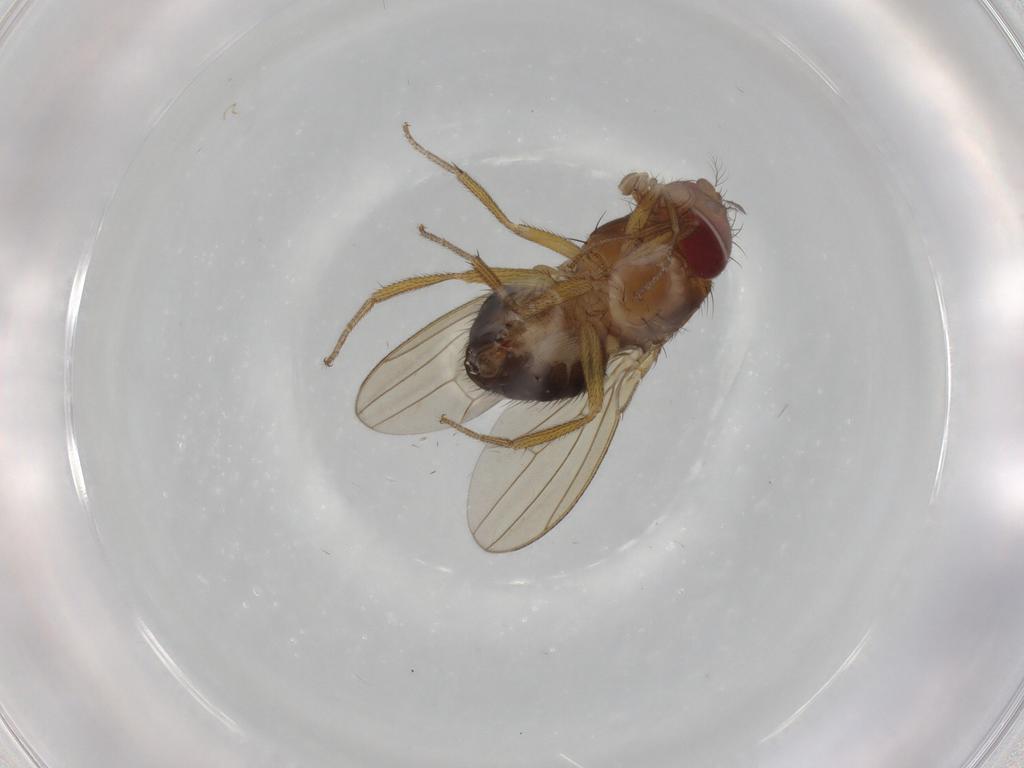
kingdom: Animalia
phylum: Arthropoda
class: Insecta
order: Diptera
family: Drosophilidae
